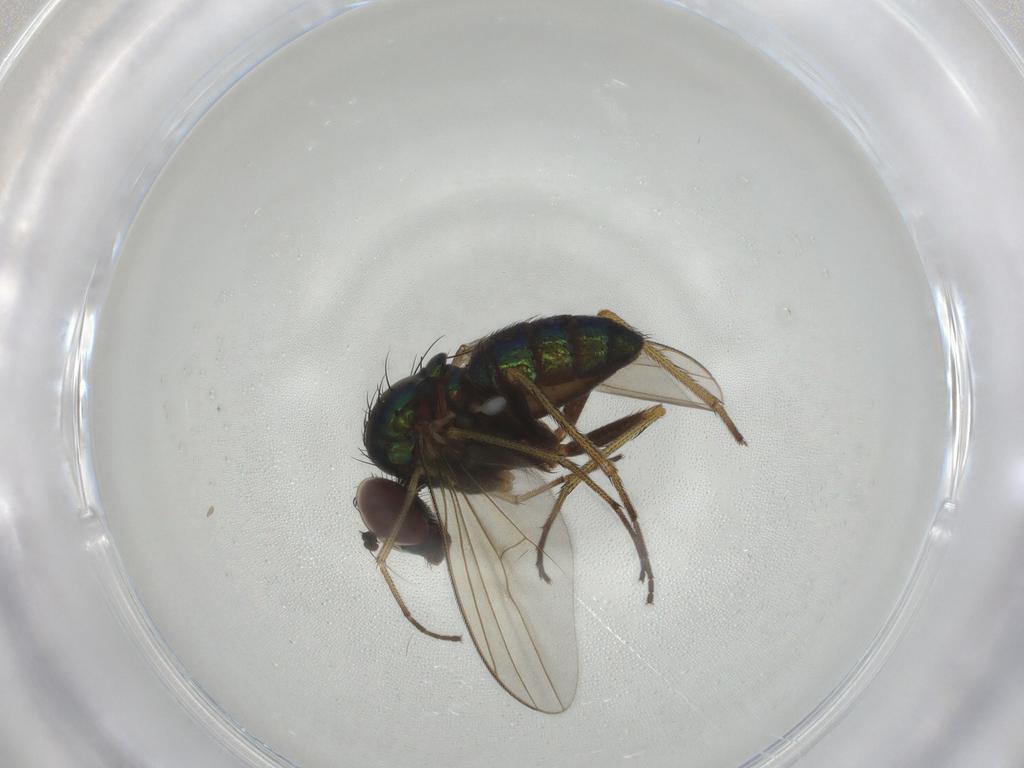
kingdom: Animalia
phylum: Arthropoda
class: Insecta
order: Diptera
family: Dolichopodidae
